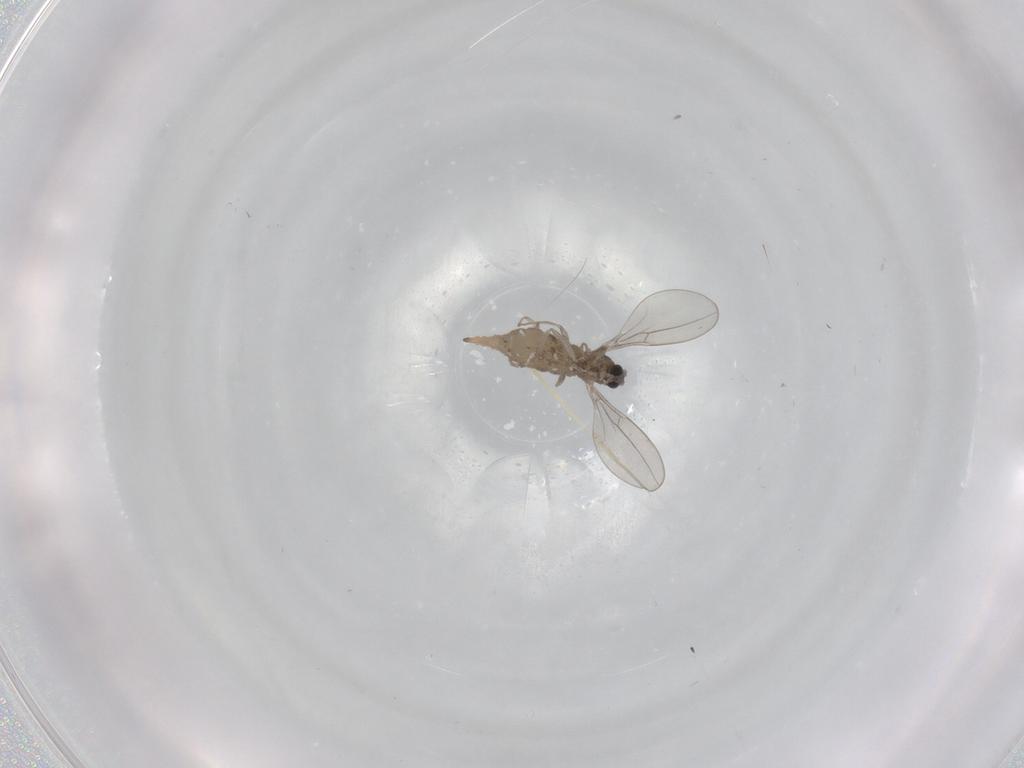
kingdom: Animalia
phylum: Arthropoda
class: Insecta
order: Diptera
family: Cecidomyiidae
